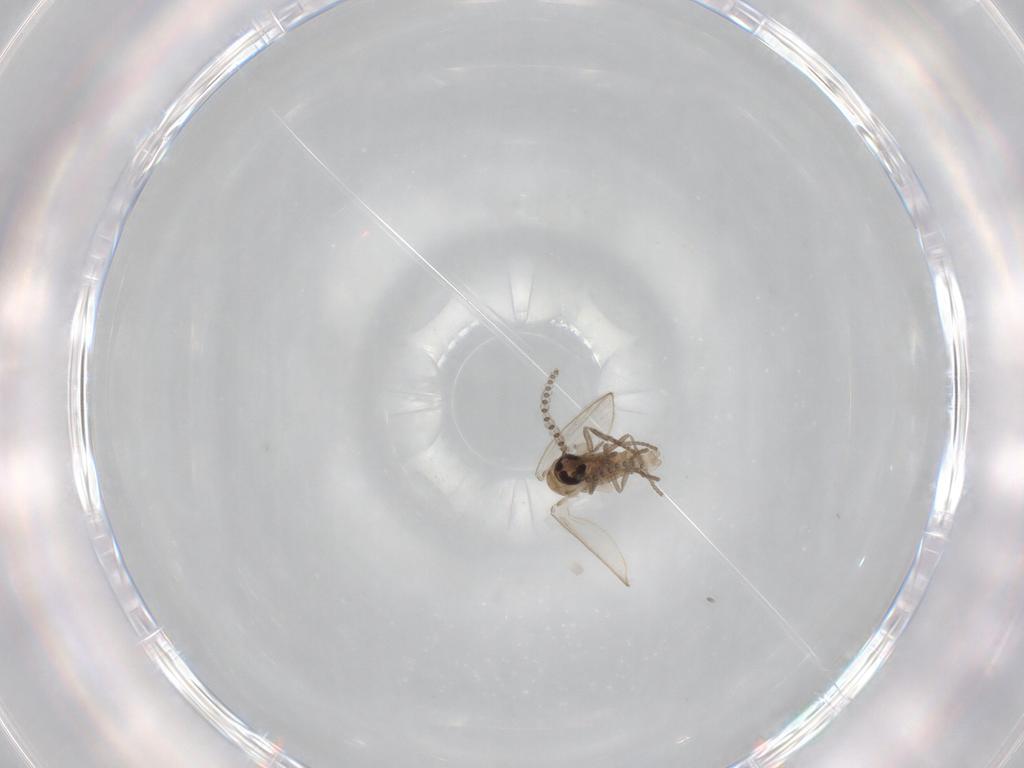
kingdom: Animalia
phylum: Arthropoda
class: Insecta
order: Diptera
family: Psychodidae
